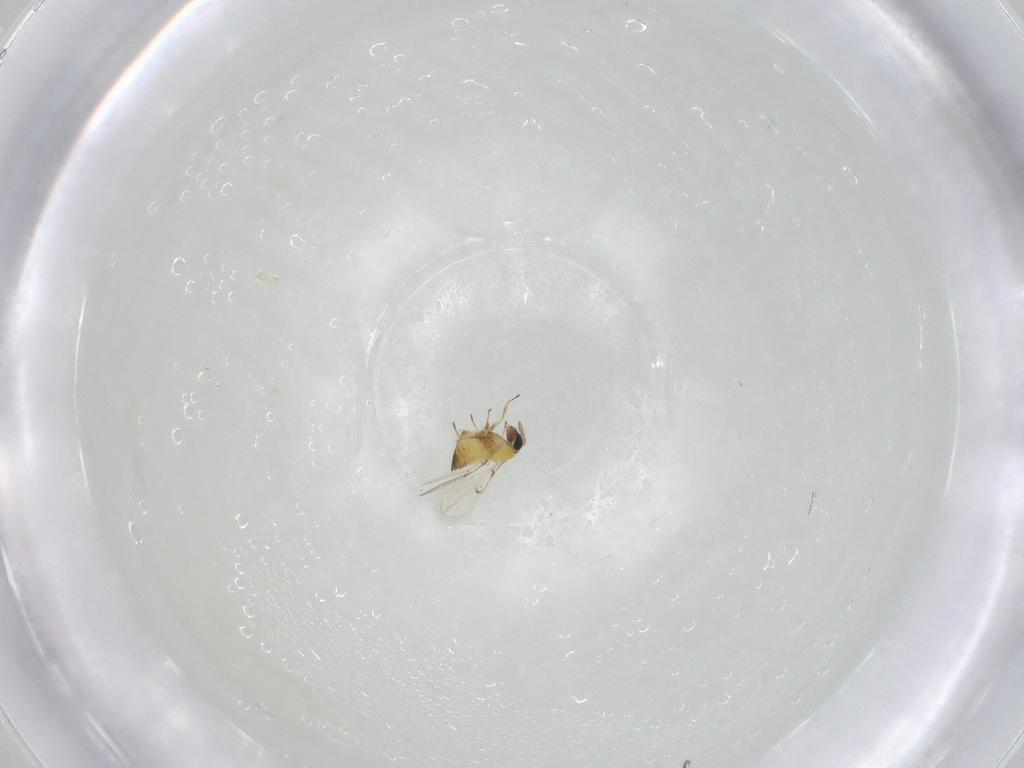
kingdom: Animalia
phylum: Arthropoda
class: Insecta
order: Hymenoptera
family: Trichogrammatidae
